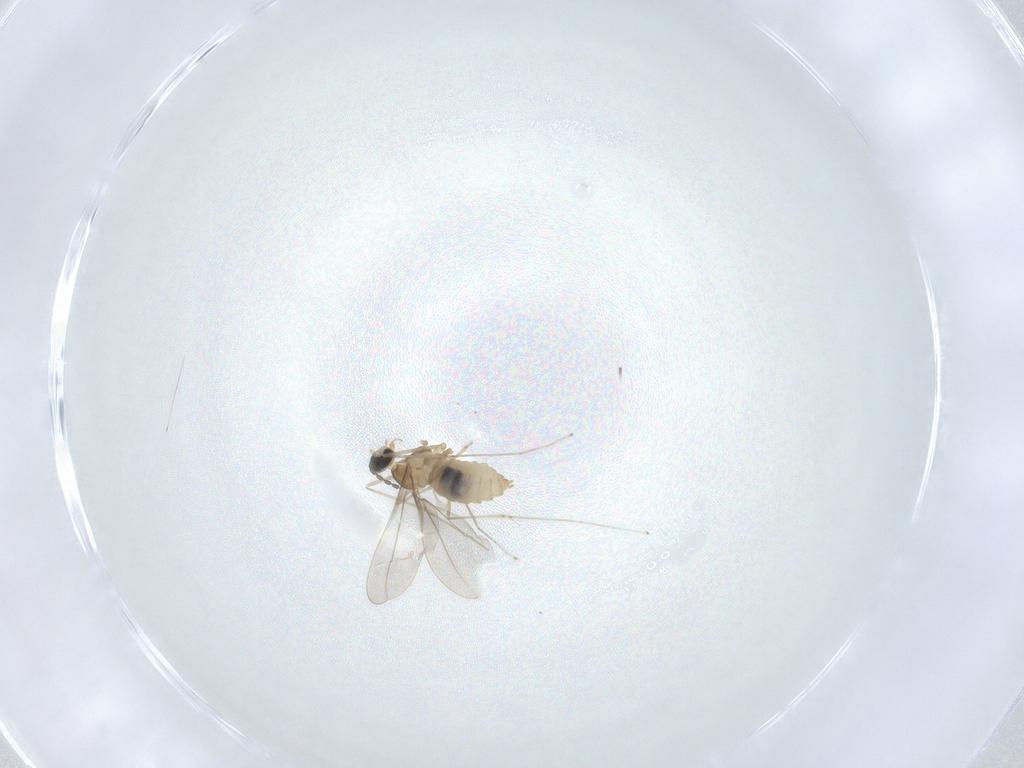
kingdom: Animalia
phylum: Arthropoda
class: Insecta
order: Diptera
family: Cecidomyiidae
